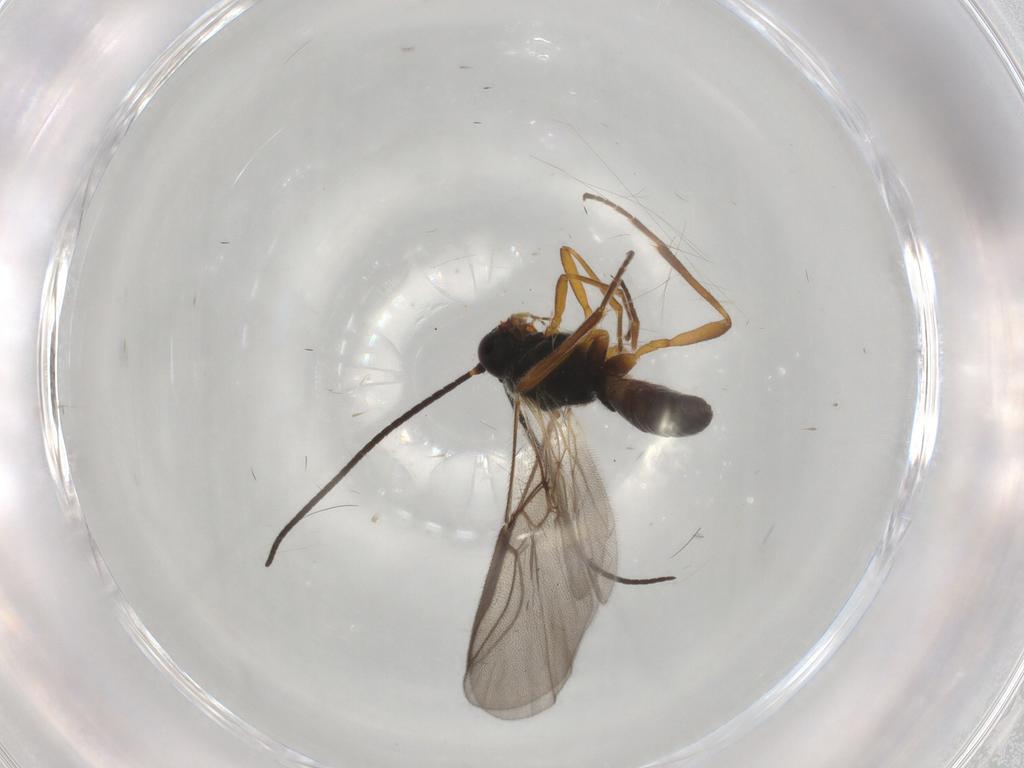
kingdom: Animalia
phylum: Arthropoda
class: Insecta
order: Hymenoptera
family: Braconidae
